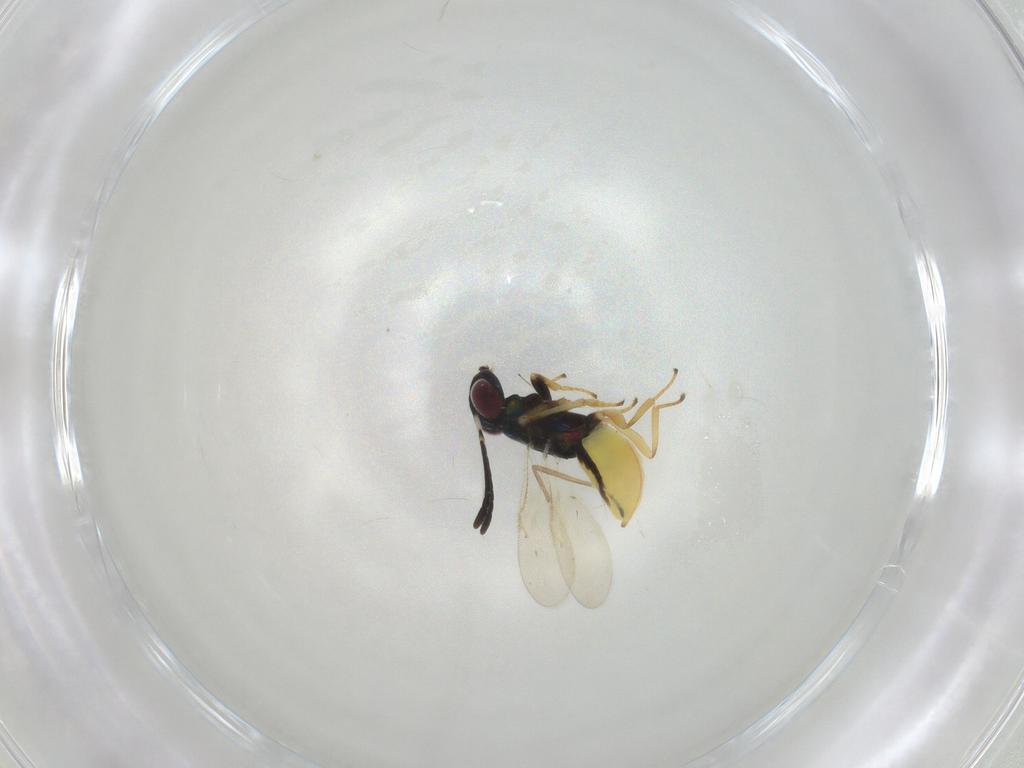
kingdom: Animalia
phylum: Arthropoda
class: Insecta
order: Hymenoptera
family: Encyrtidae
